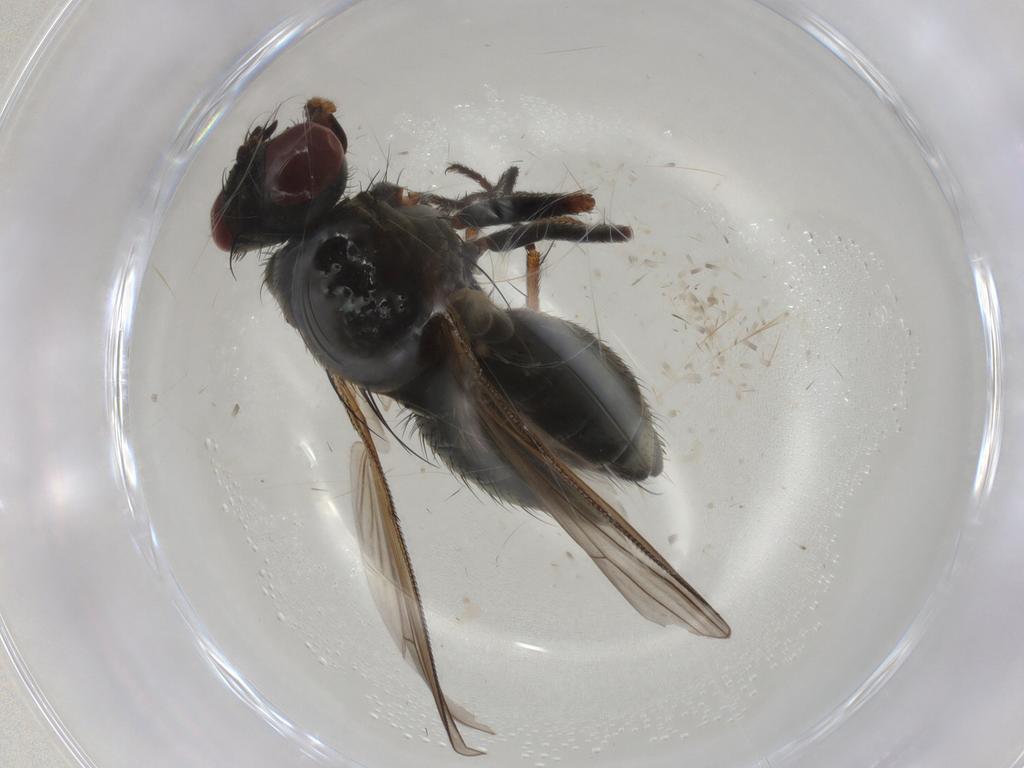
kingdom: Animalia
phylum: Arthropoda
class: Insecta
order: Diptera
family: Muscidae
